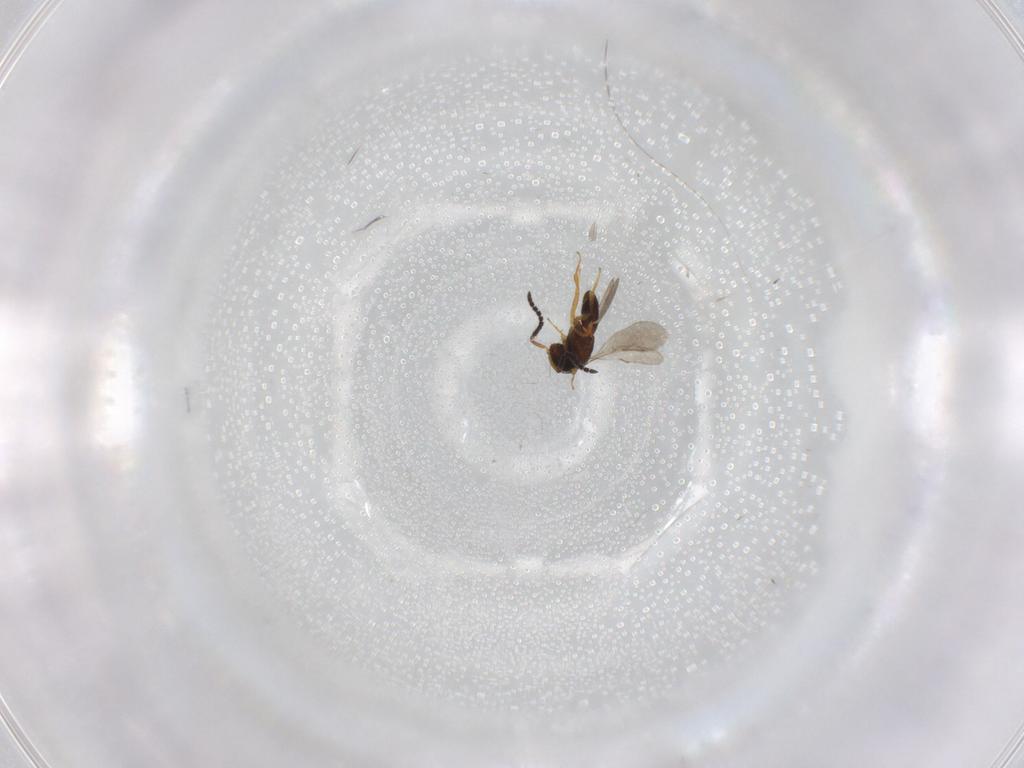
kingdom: Animalia
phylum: Arthropoda
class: Insecta
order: Hymenoptera
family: Scelionidae
